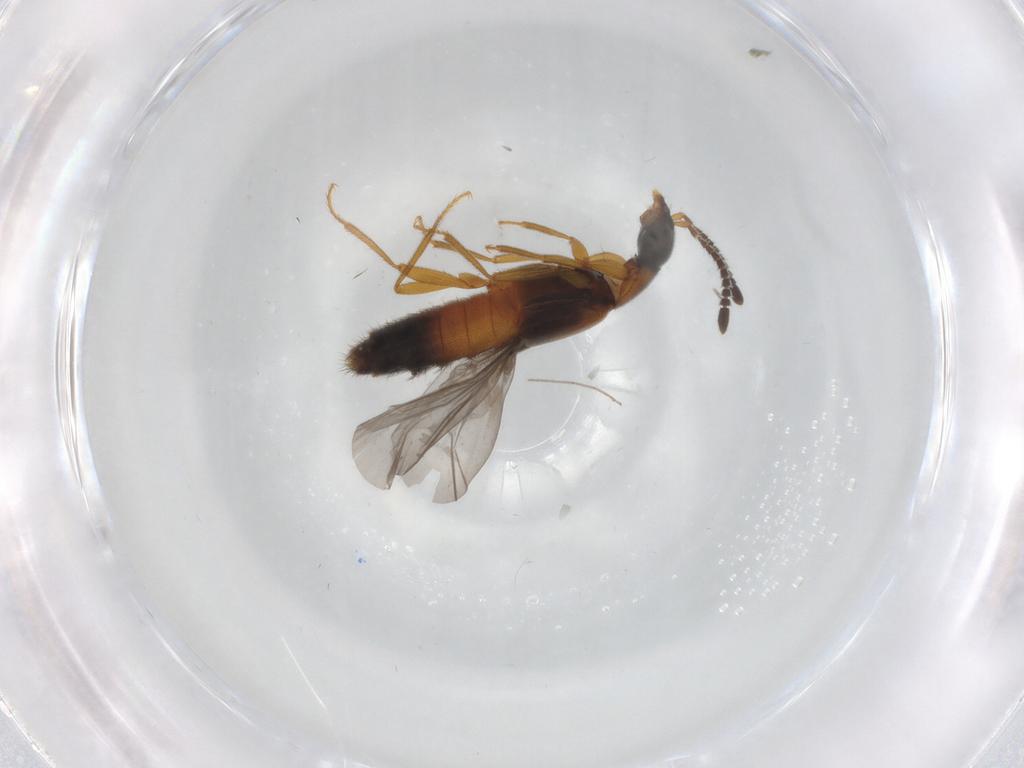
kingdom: Animalia
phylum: Arthropoda
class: Insecta
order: Coleoptera
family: Staphylinidae
